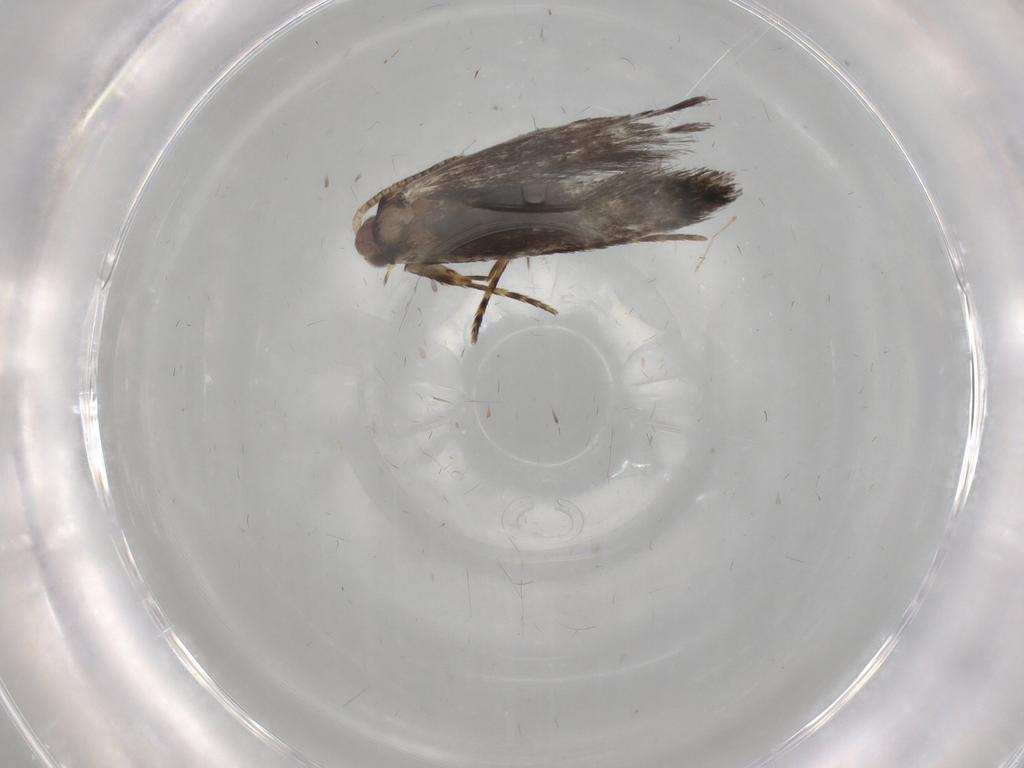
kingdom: Animalia
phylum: Arthropoda
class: Insecta
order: Lepidoptera
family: Tineidae
